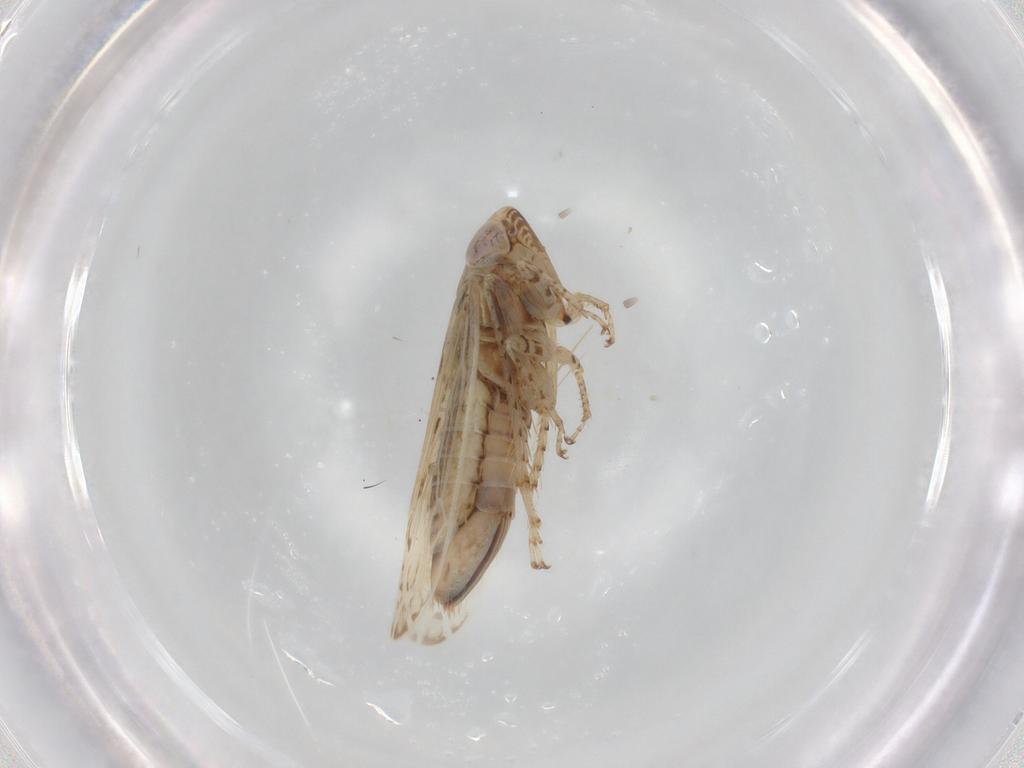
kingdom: Animalia
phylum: Arthropoda
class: Insecta
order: Hemiptera
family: Cicadellidae
